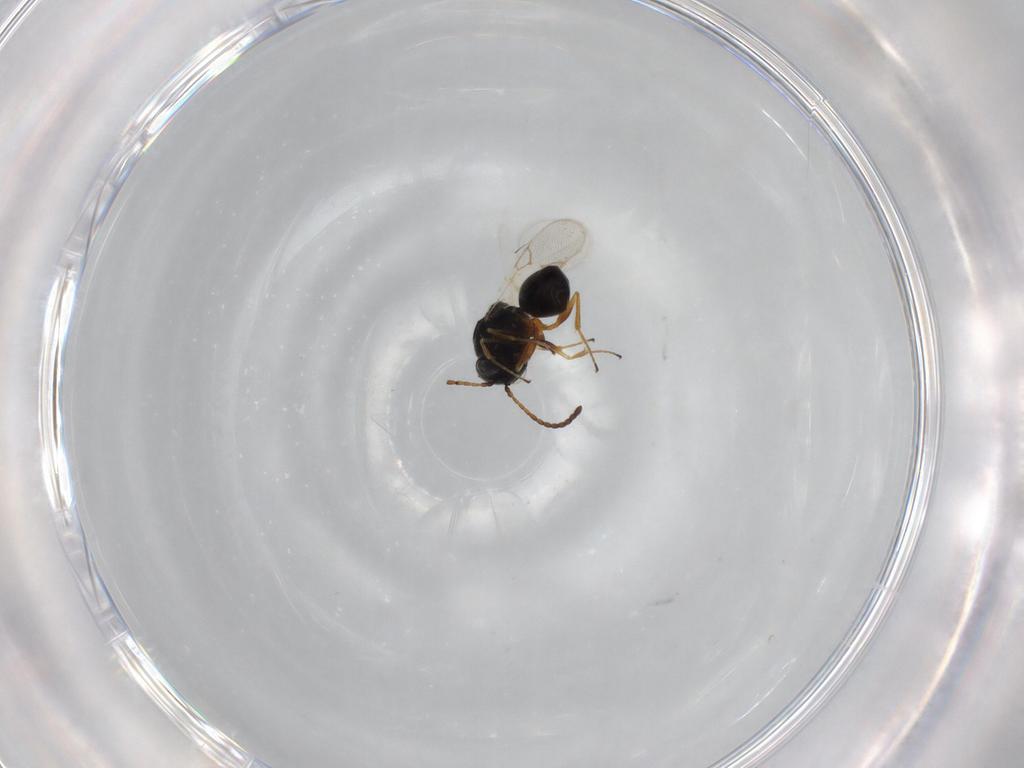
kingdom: Animalia
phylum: Arthropoda
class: Insecta
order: Hymenoptera
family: Figitidae
